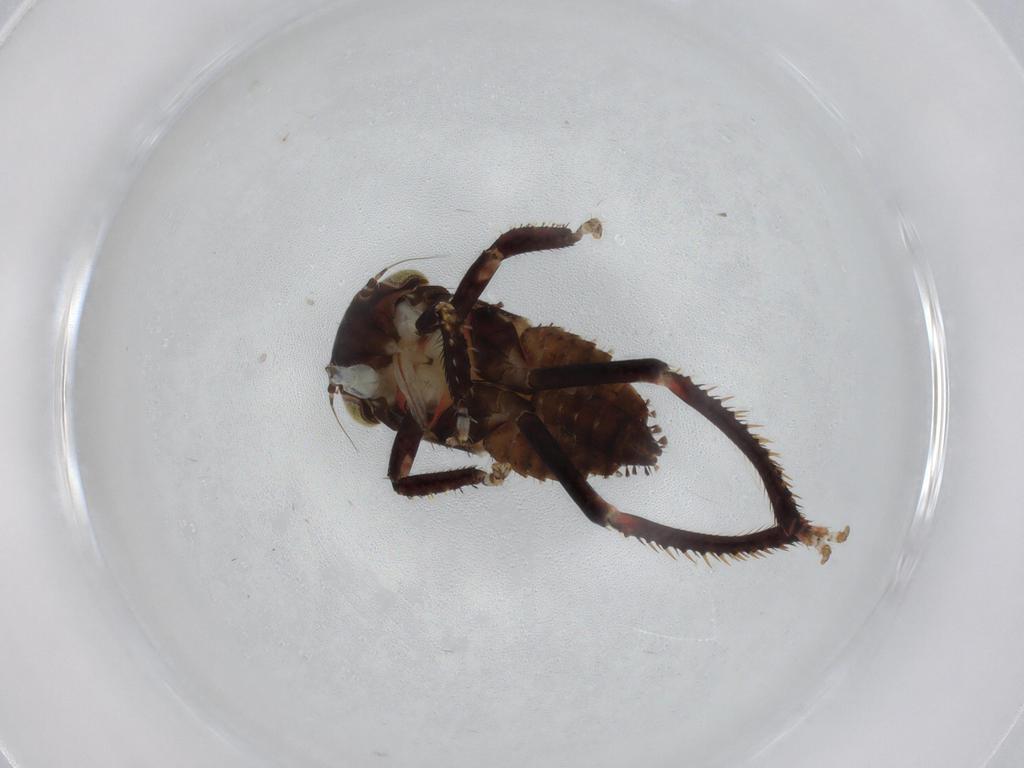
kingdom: Animalia
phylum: Arthropoda
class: Insecta
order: Hemiptera
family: Cicadellidae
